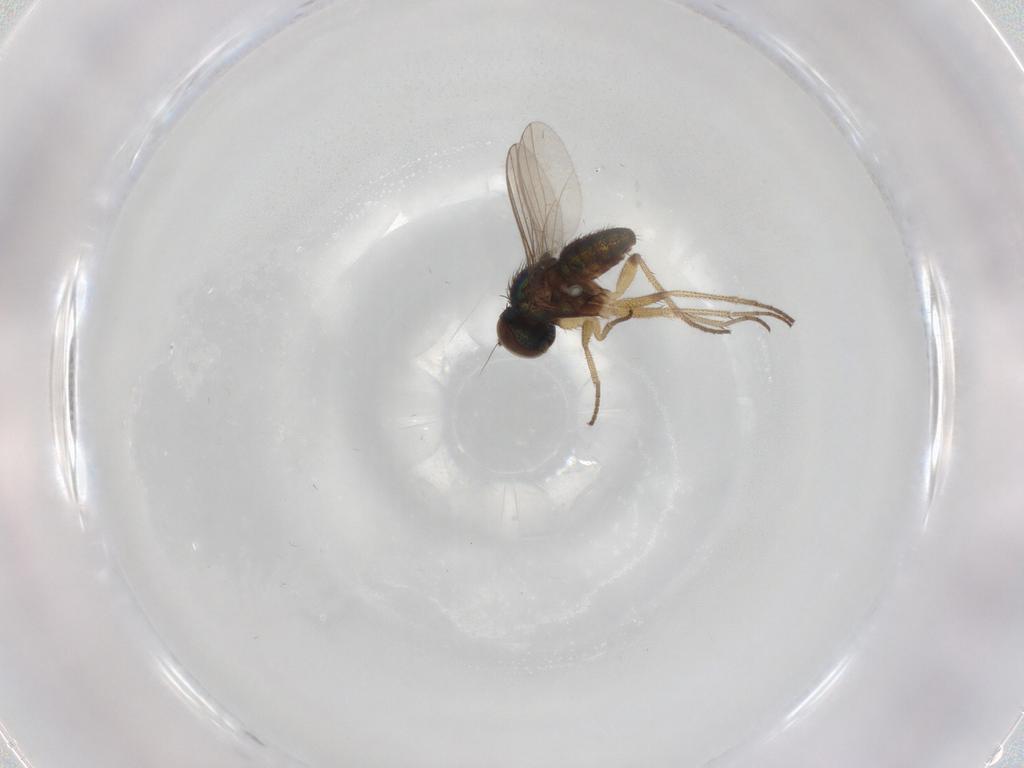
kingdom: Animalia
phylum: Arthropoda
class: Insecta
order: Diptera
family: Dolichopodidae
